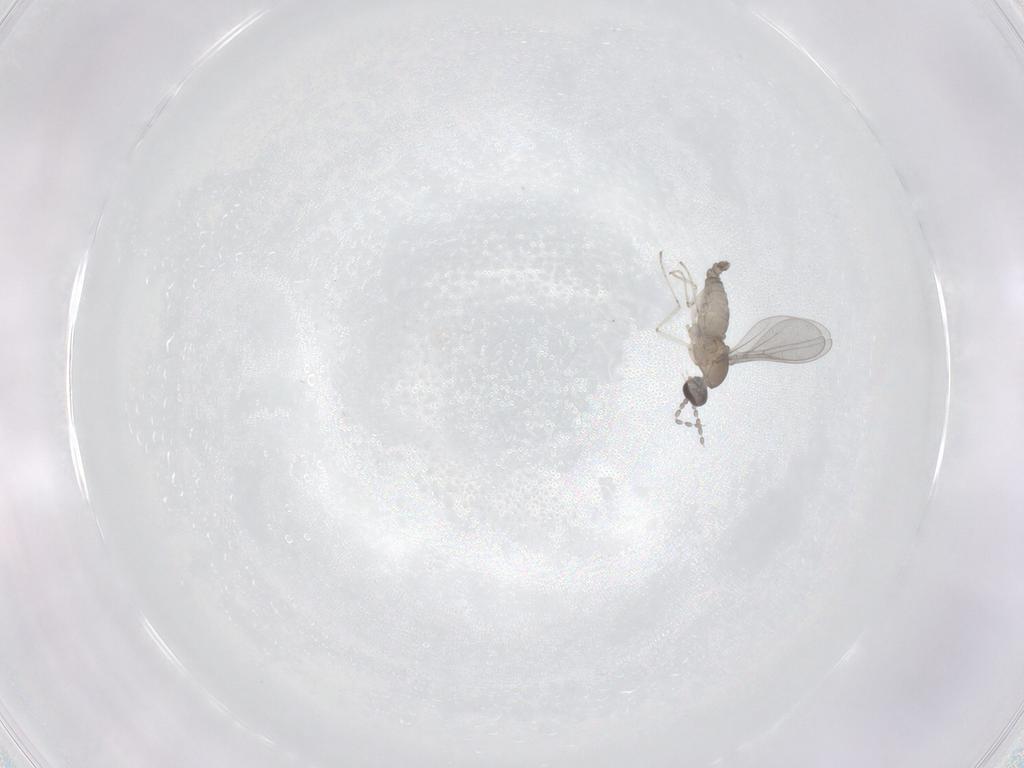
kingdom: Animalia
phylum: Arthropoda
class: Insecta
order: Diptera
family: Cecidomyiidae
